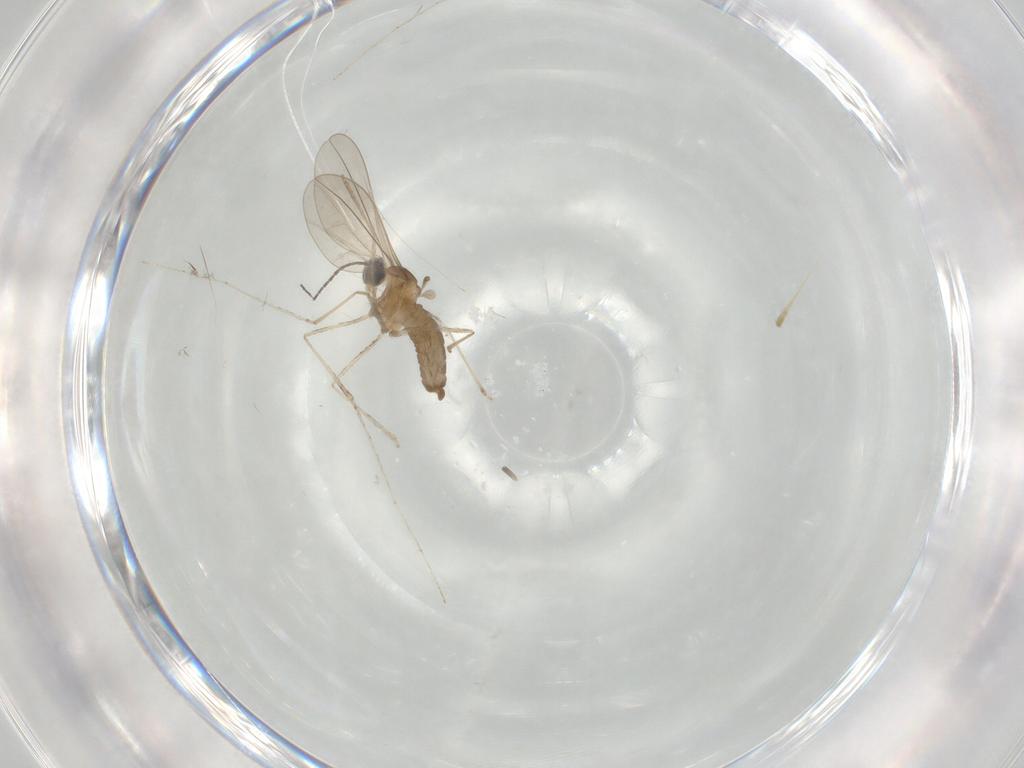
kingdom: Animalia
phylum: Arthropoda
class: Insecta
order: Diptera
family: Cecidomyiidae
